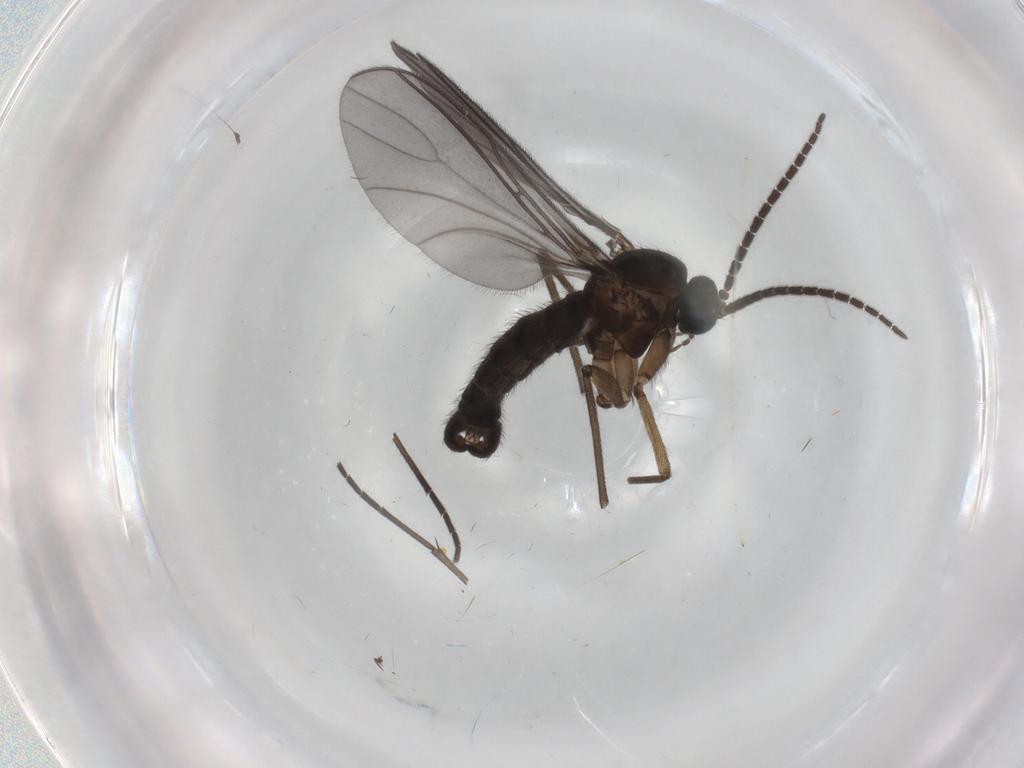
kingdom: Animalia
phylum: Arthropoda
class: Insecta
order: Diptera
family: Sciaridae
